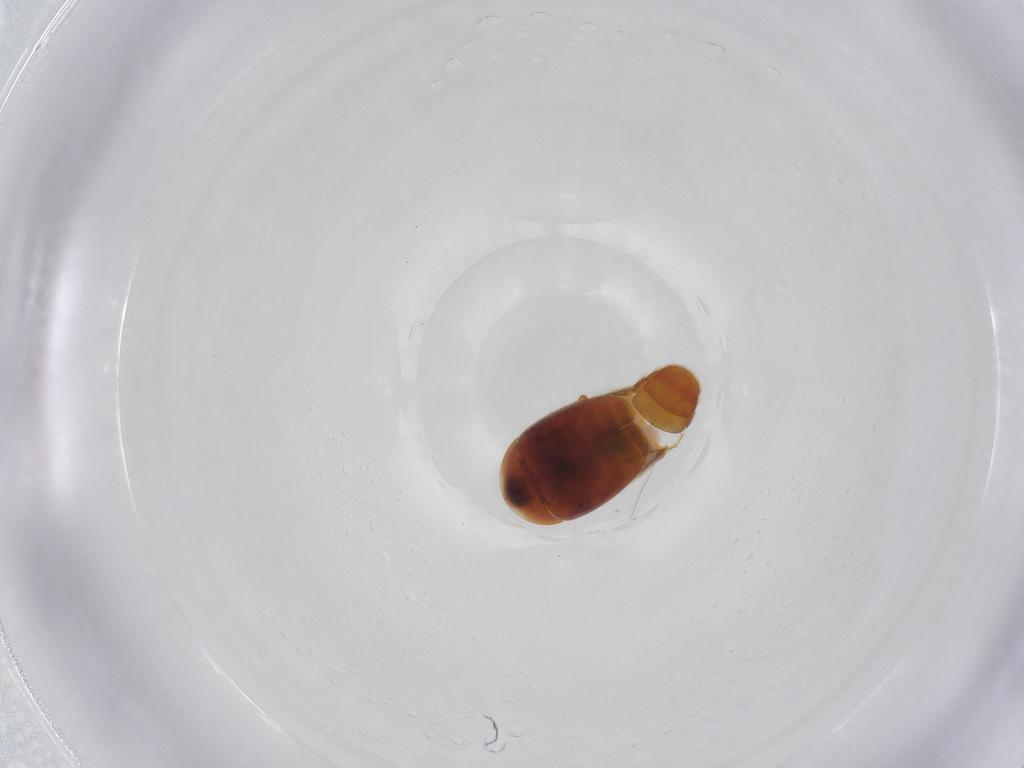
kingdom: Animalia
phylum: Arthropoda
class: Insecta
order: Coleoptera
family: Corylophidae
